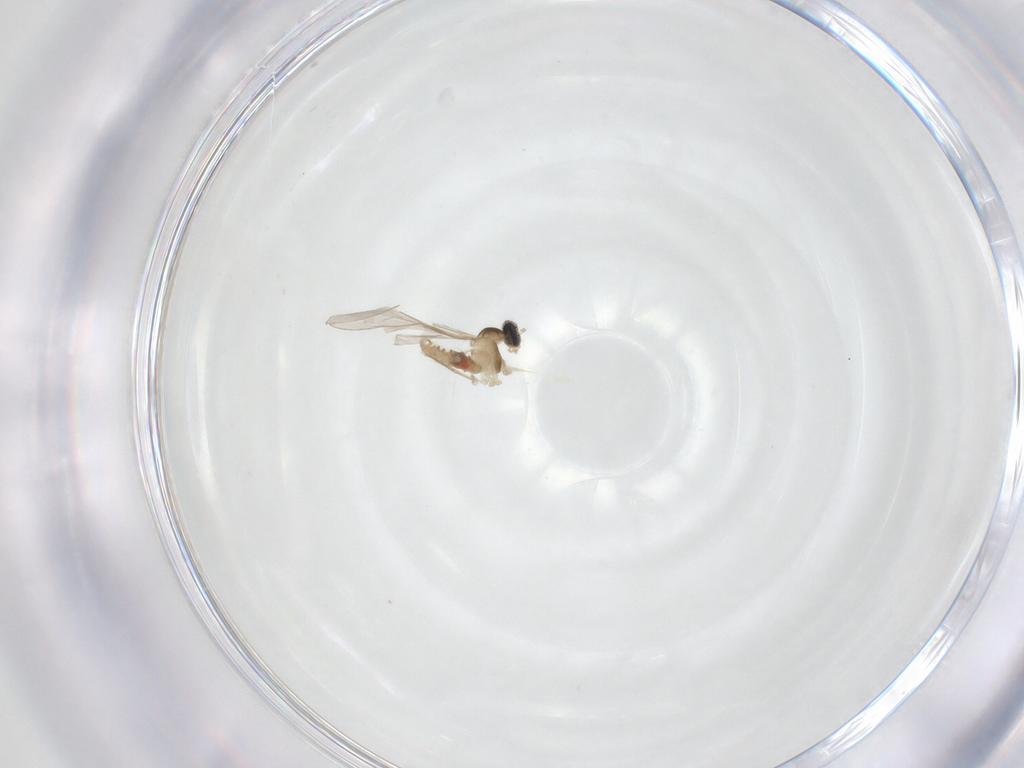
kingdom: Animalia
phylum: Arthropoda
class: Insecta
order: Diptera
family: Cecidomyiidae
